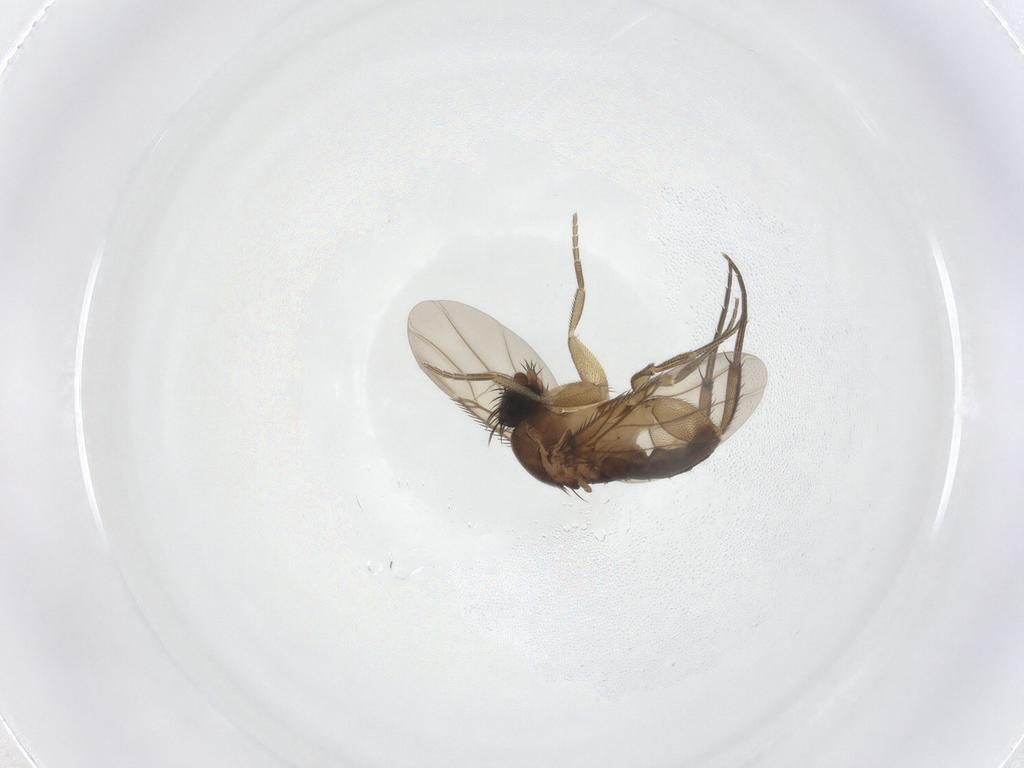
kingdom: Animalia
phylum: Arthropoda
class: Insecta
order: Diptera
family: Phoridae
